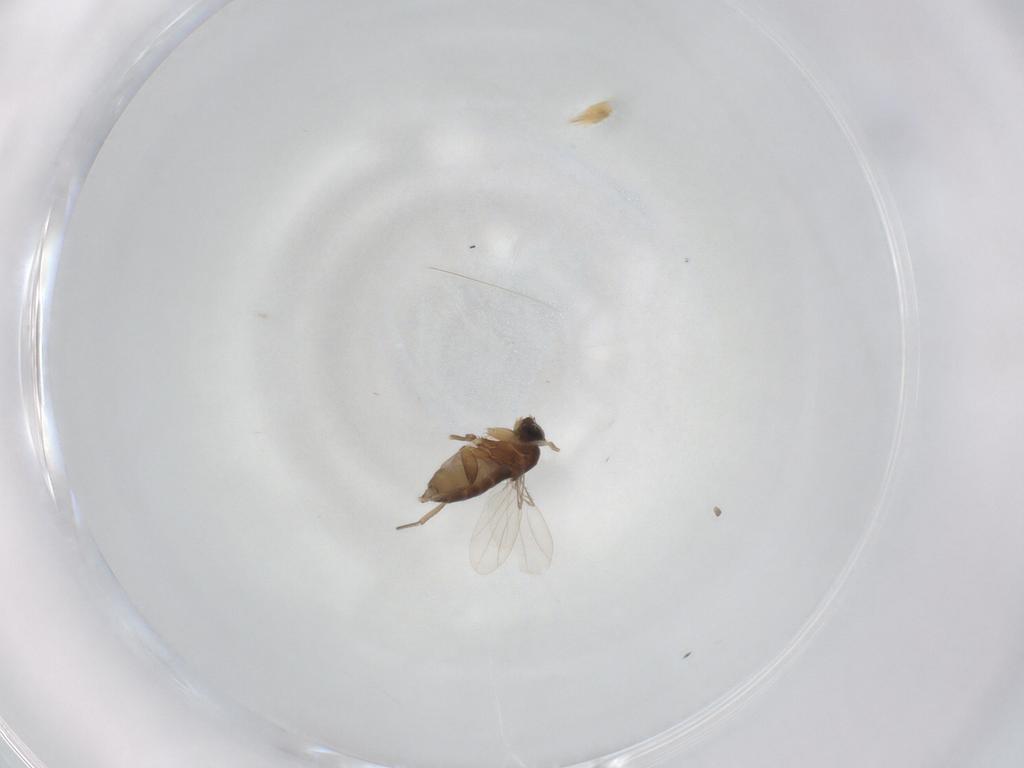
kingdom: Animalia
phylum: Arthropoda
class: Insecta
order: Diptera
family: Phoridae
